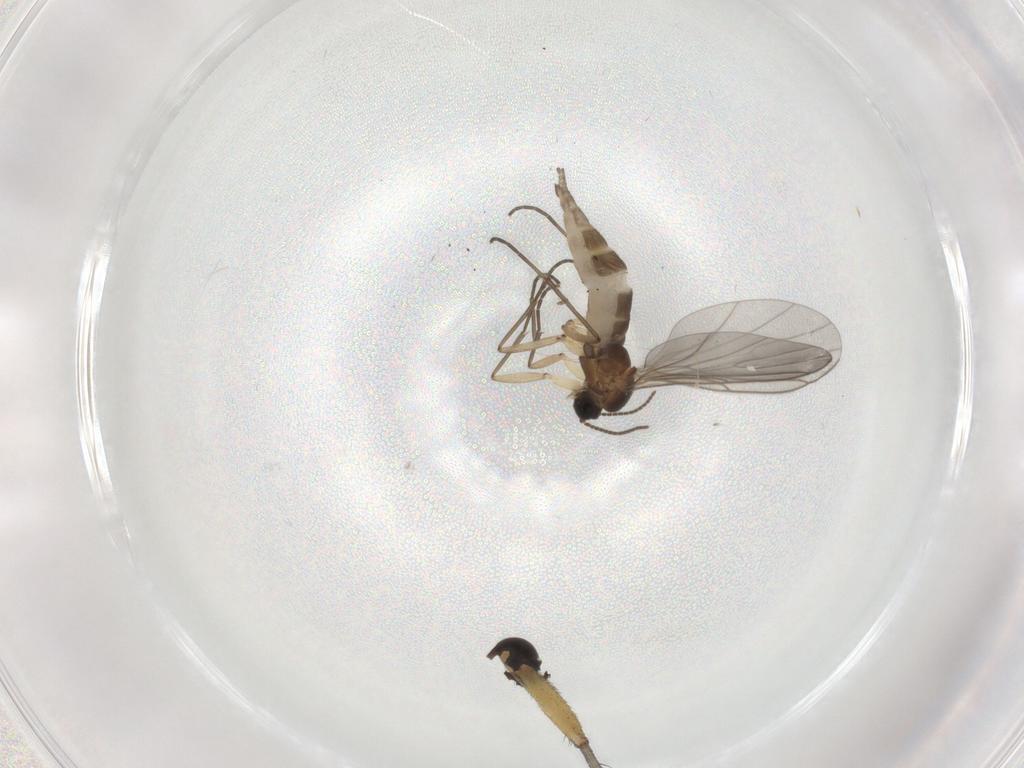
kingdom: Animalia
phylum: Arthropoda
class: Insecta
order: Diptera
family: Sciaridae
